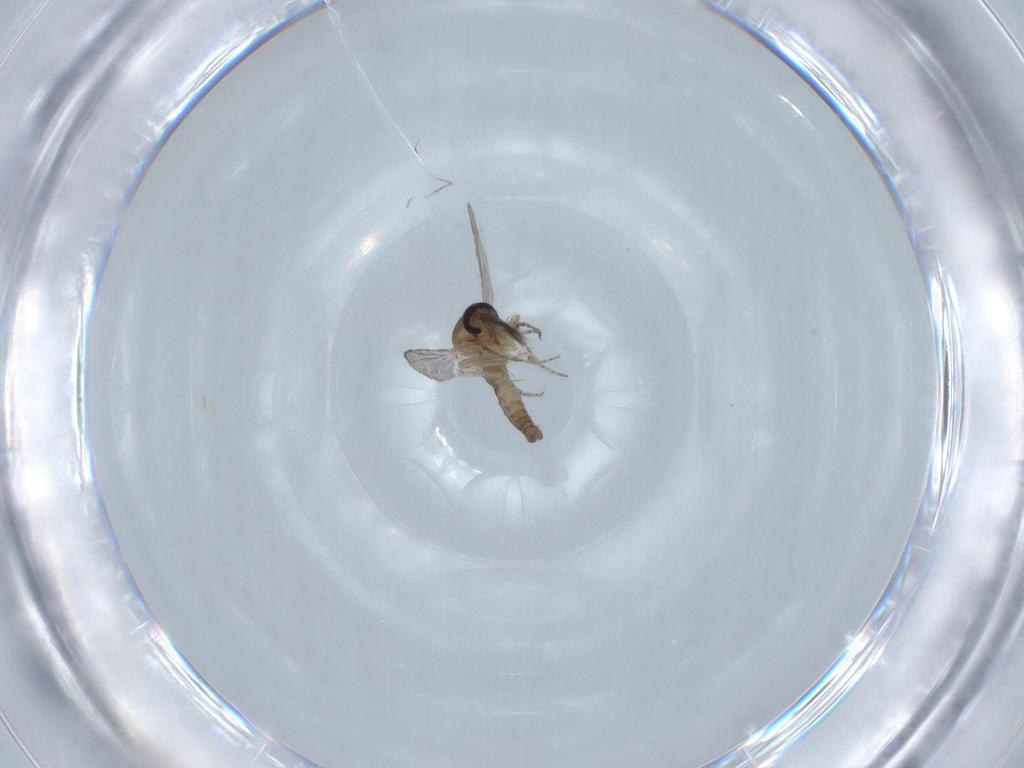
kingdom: Animalia
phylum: Arthropoda
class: Insecta
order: Diptera
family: Ceratopogonidae
